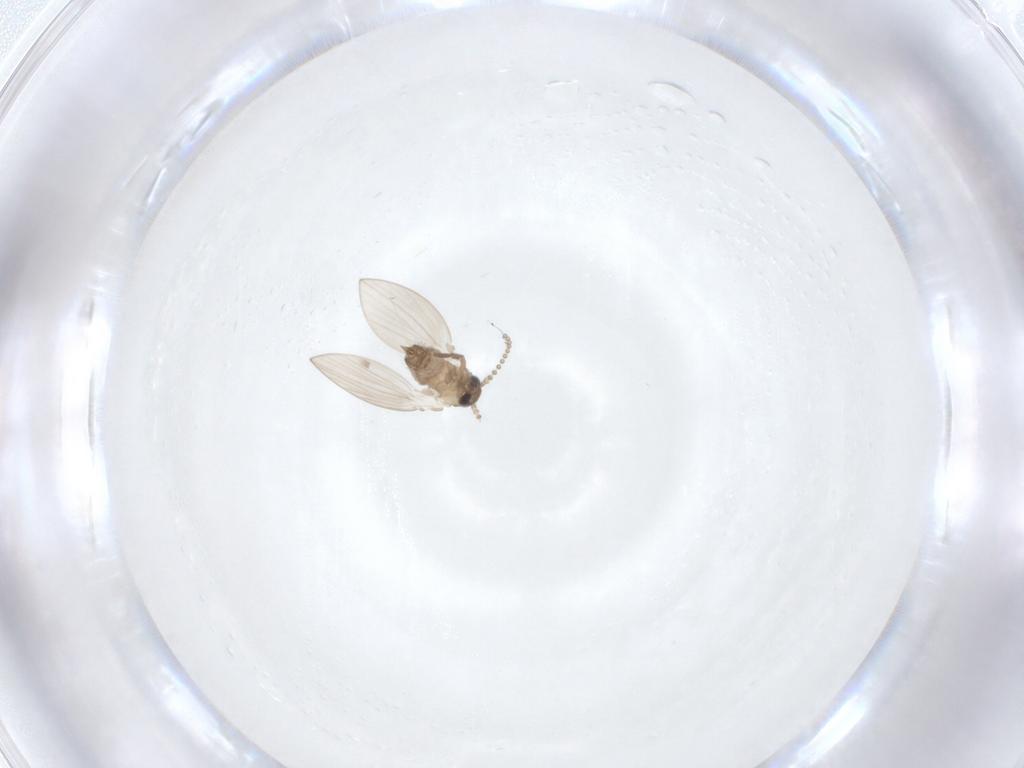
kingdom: Animalia
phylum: Arthropoda
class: Insecta
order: Diptera
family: Psychodidae
